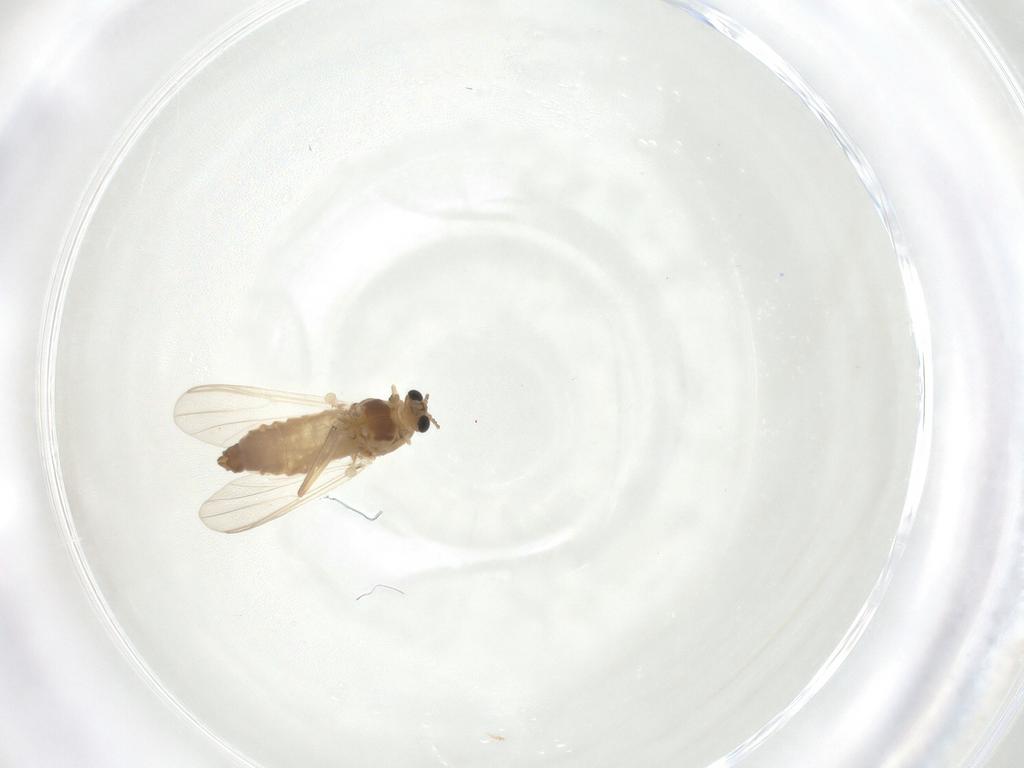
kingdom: Animalia
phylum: Arthropoda
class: Insecta
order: Diptera
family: Chironomidae
